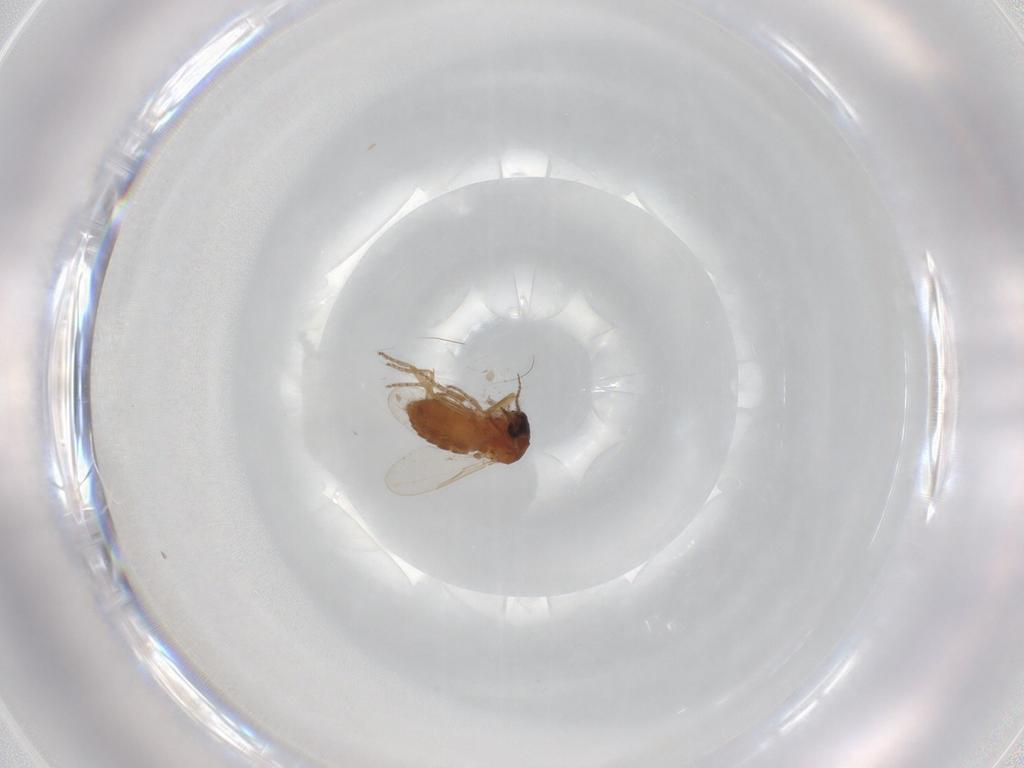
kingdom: Animalia
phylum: Arthropoda
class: Insecta
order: Diptera
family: Ceratopogonidae
